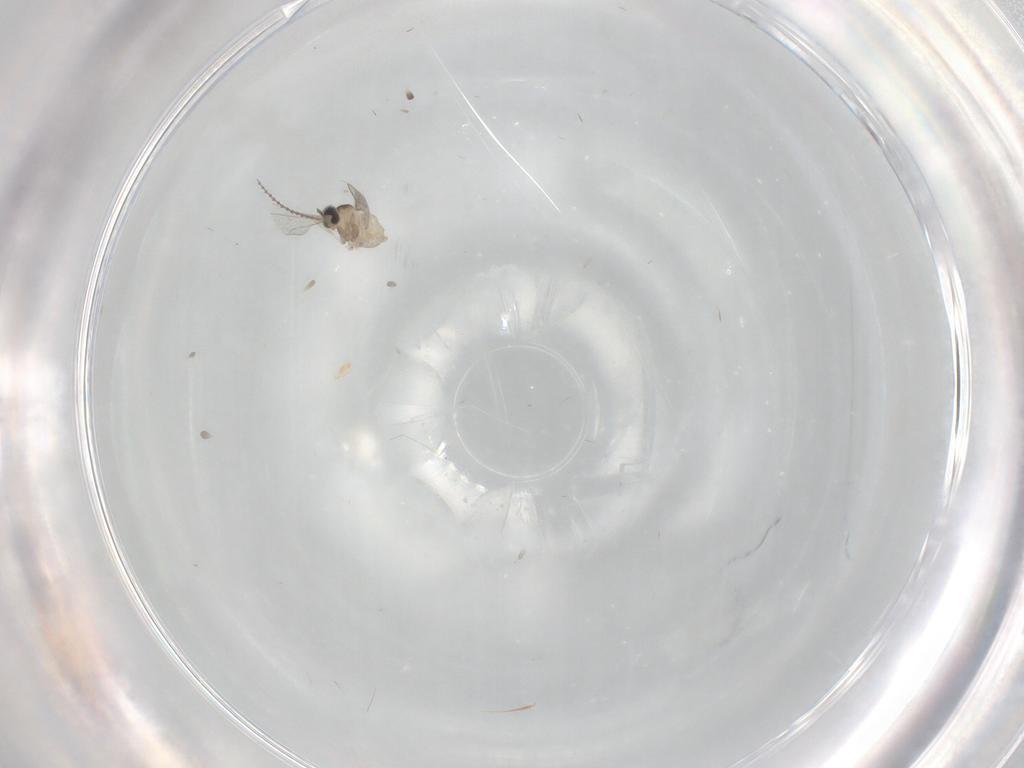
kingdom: Animalia
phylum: Arthropoda
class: Insecta
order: Diptera
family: Cecidomyiidae
